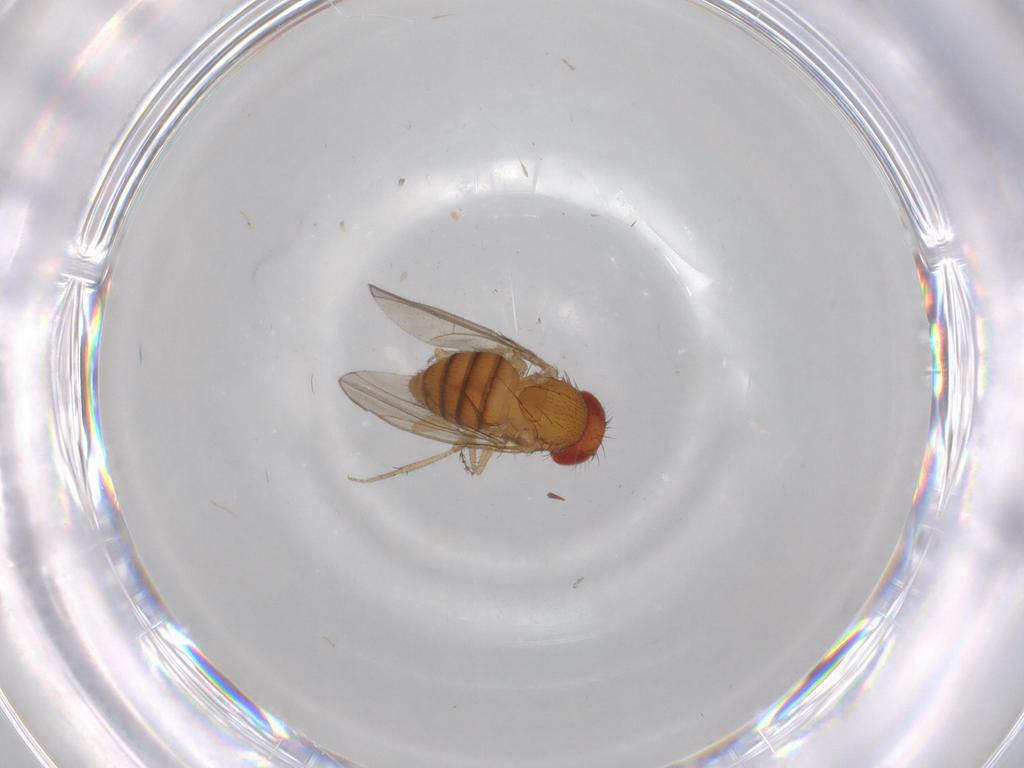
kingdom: Animalia
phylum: Arthropoda
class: Insecta
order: Diptera
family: Drosophilidae
